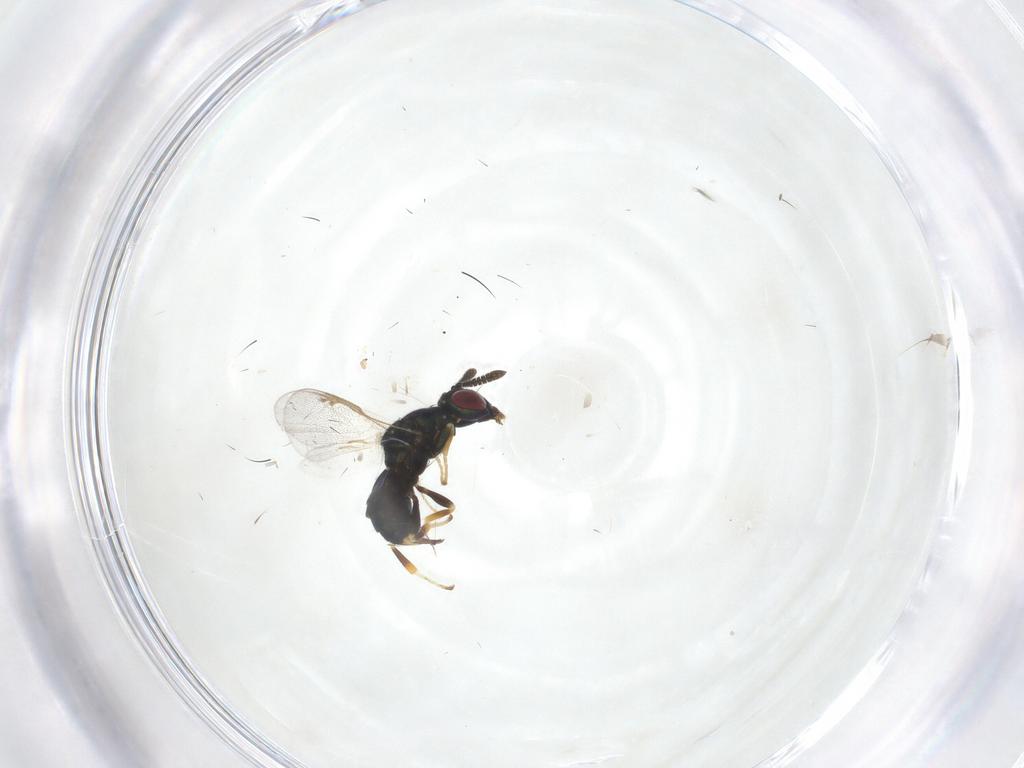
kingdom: Animalia
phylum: Arthropoda
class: Insecta
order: Hymenoptera
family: Braconidae
